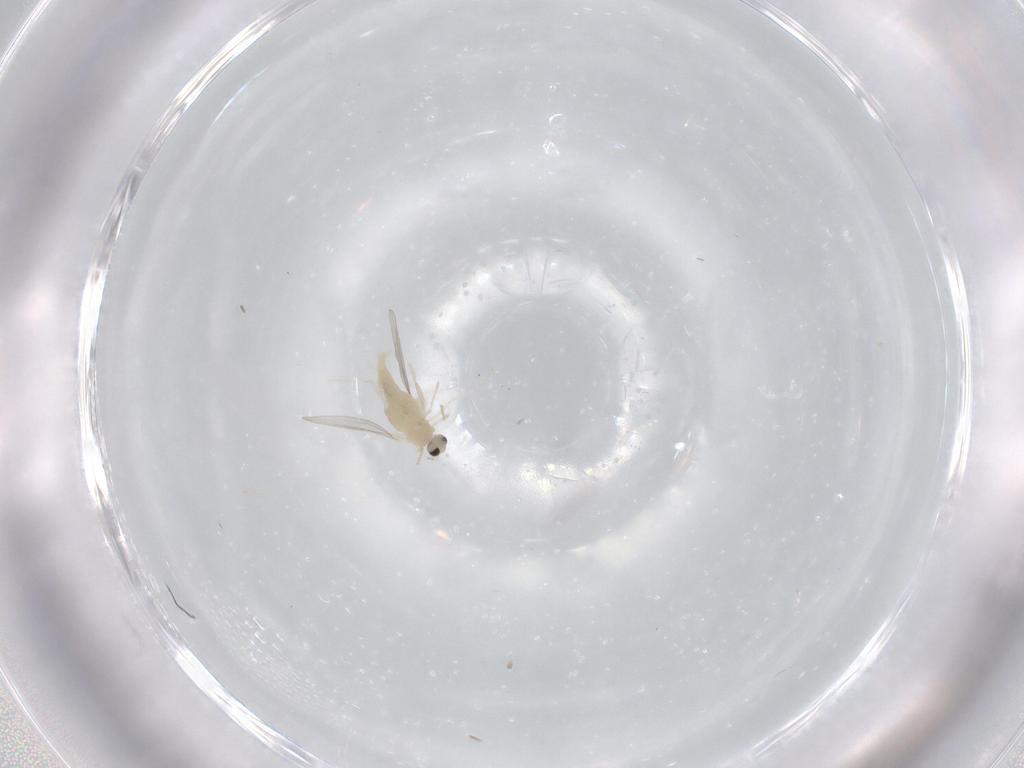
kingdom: Animalia
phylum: Arthropoda
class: Insecta
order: Diptera
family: Cecidomyiidae
